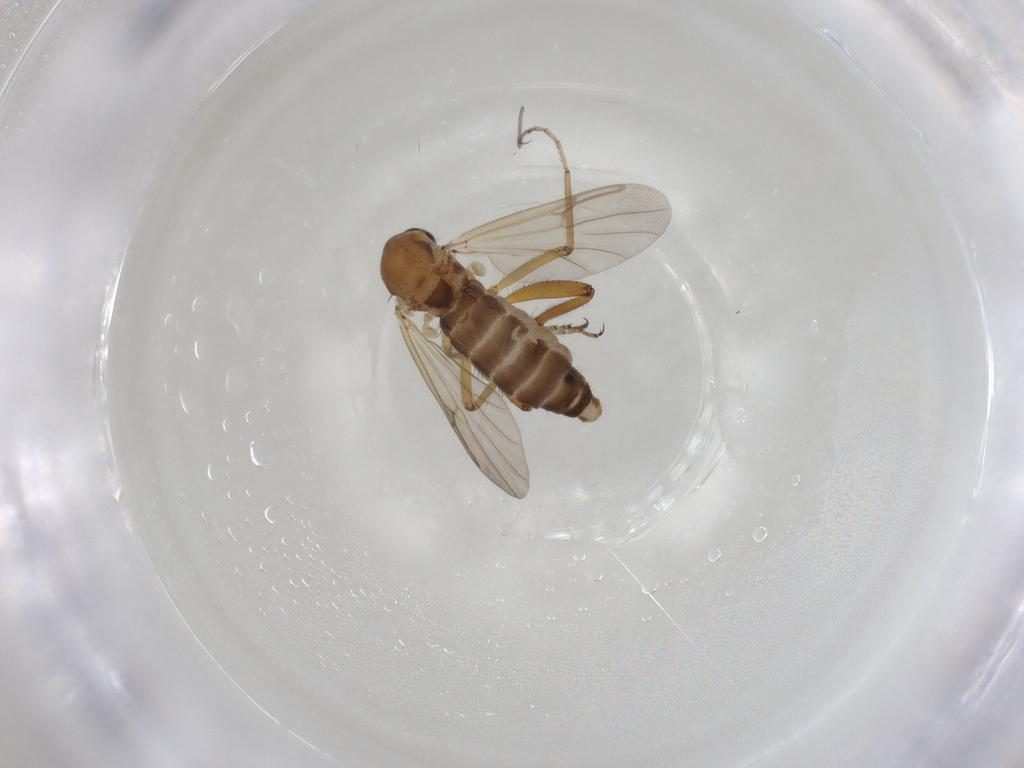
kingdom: Animalia
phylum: Arthropoda
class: Insecta
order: Diptera
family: Ceratopogonidae
